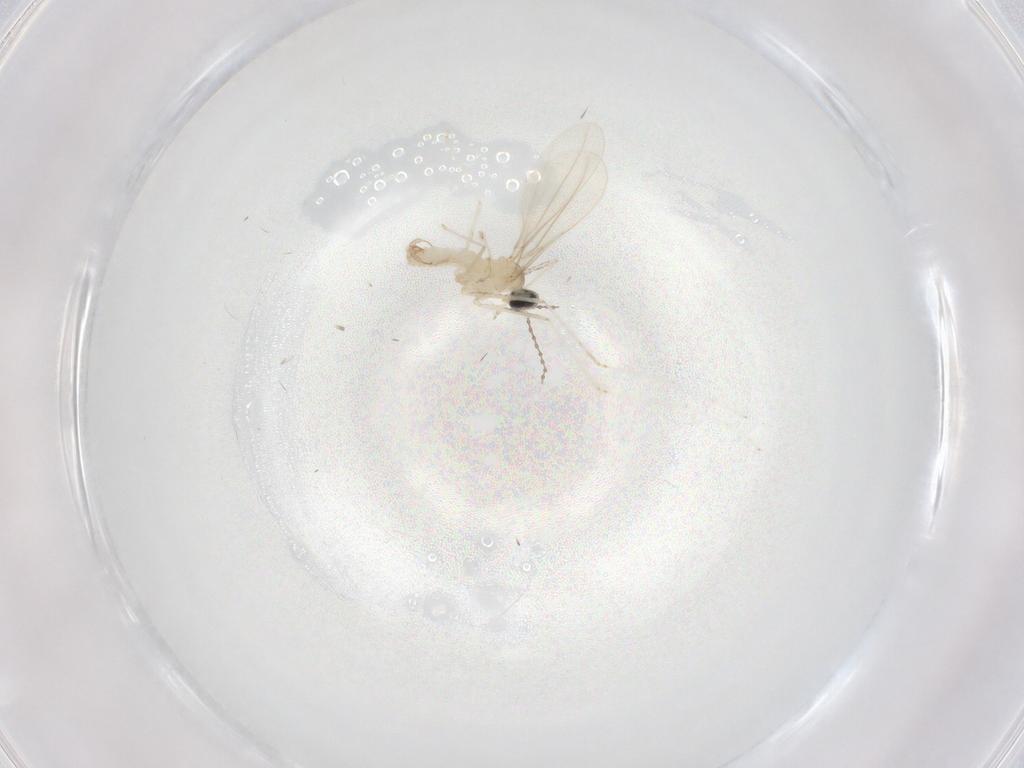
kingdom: Animalia
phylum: Arthropoda
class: Insecta
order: Diptera
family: Cecidomyiidae
